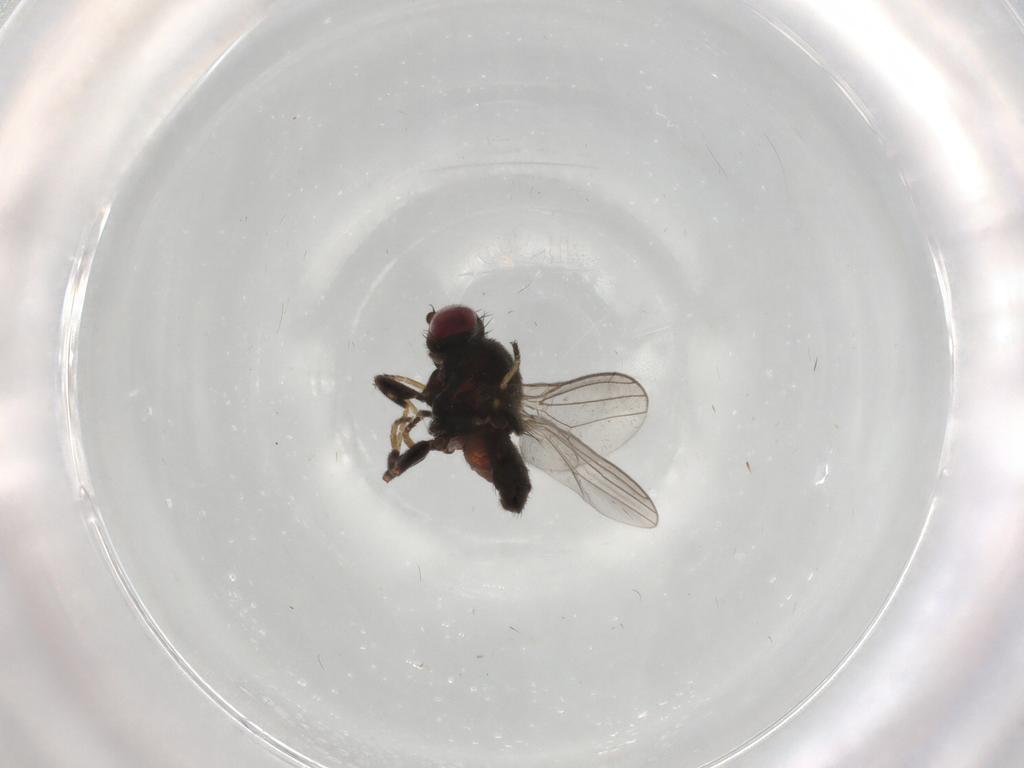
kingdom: Animalia
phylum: Arthropoda
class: Insecta
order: Diptera
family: Chloropidae
